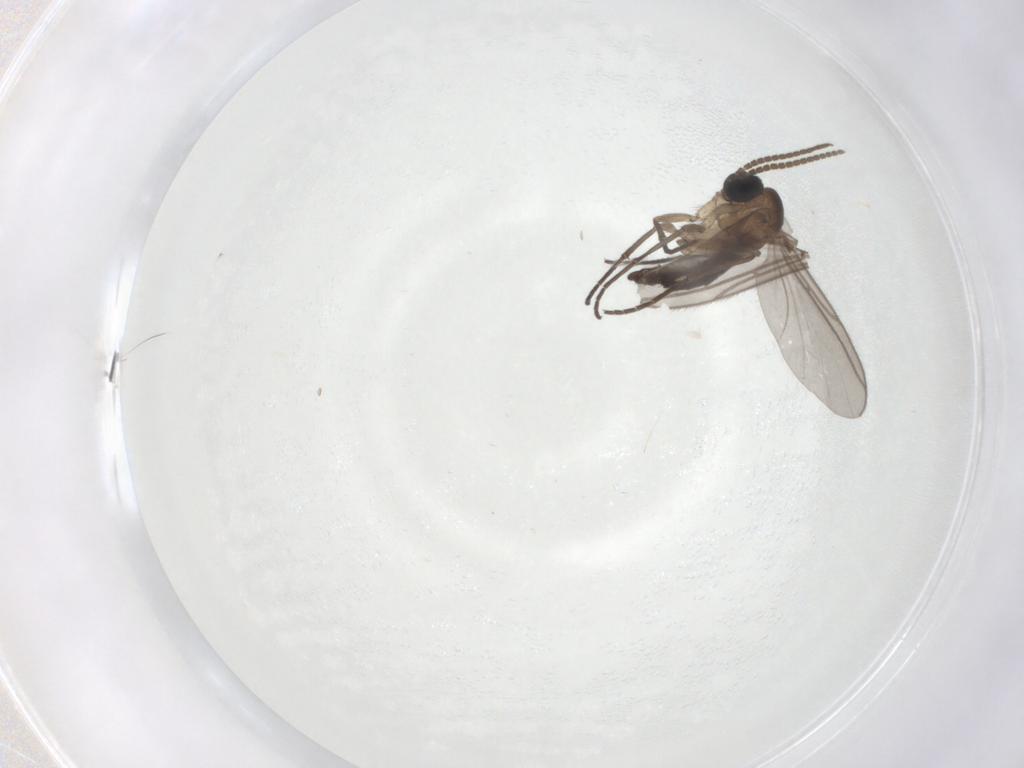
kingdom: Animalia
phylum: Arthropoda
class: Insecta
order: Diptera
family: Sciaridae
